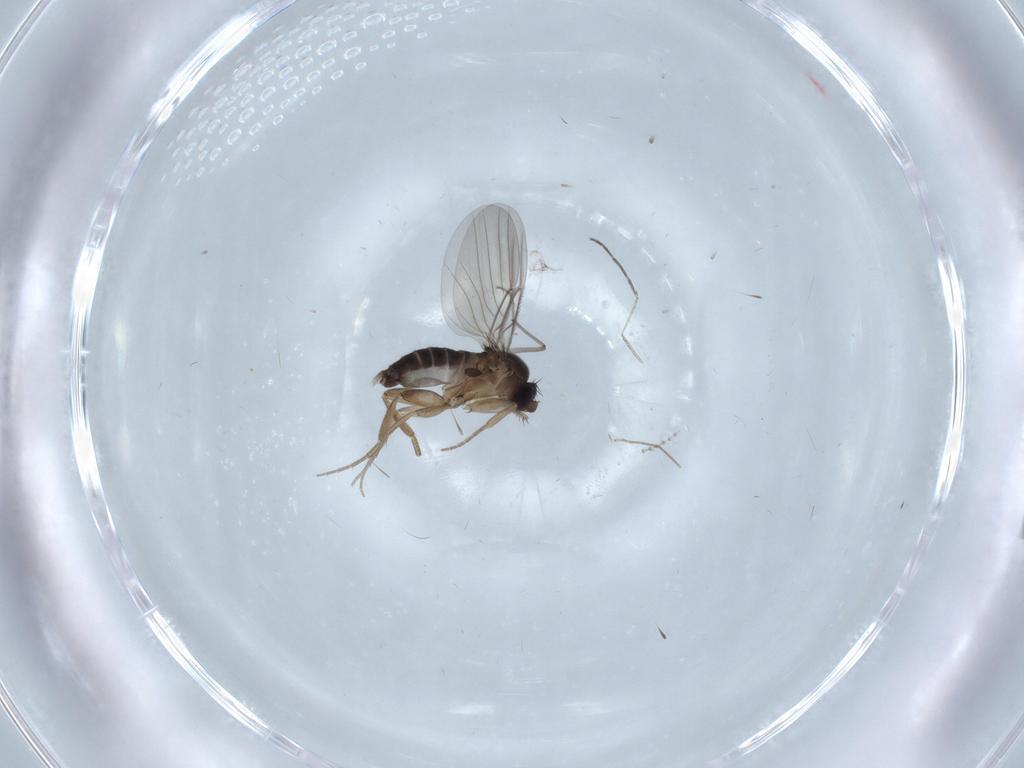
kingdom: Animalia
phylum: Arthropoda
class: Insecta
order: Diptera
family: Phoridae
